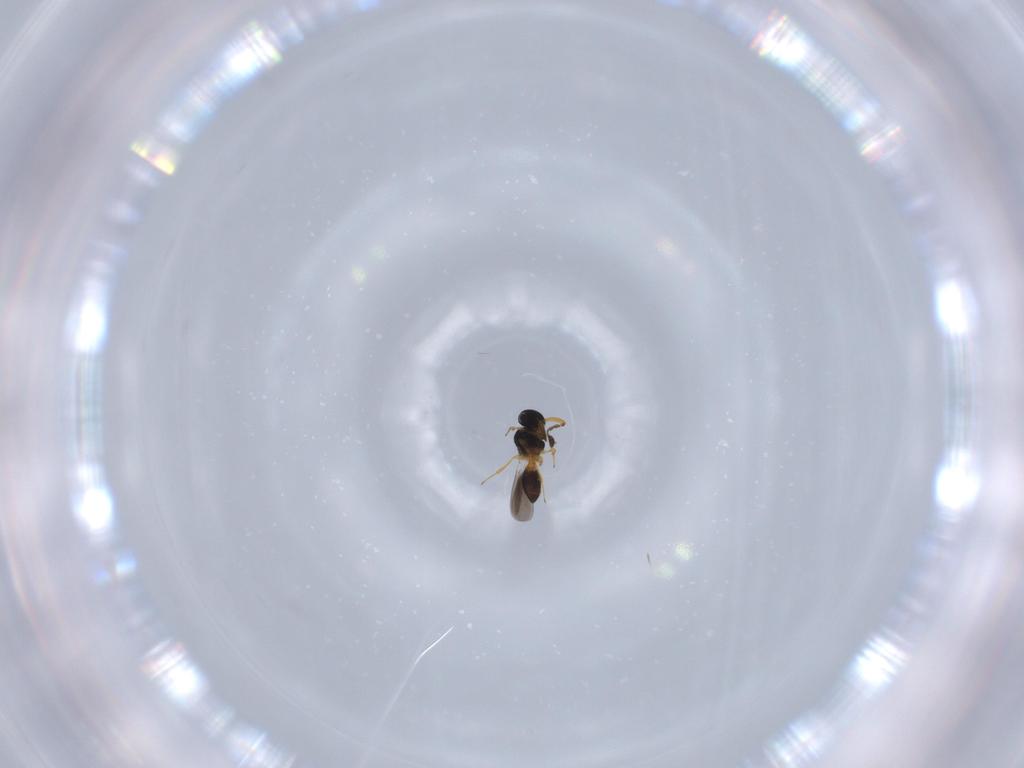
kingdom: Animalia
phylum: Arthropoda
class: Insecta
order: Hymenoptera
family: Platygastridae
